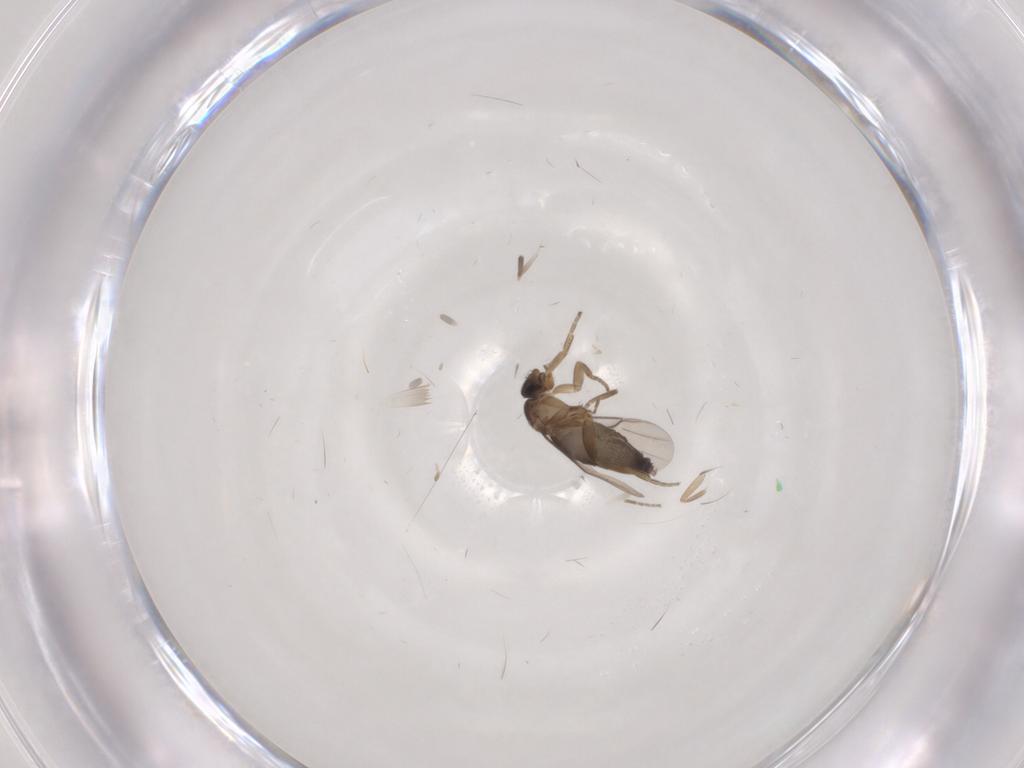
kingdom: Animalia
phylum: Arthropoda
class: Insecta
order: Diptera
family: Phoridae
